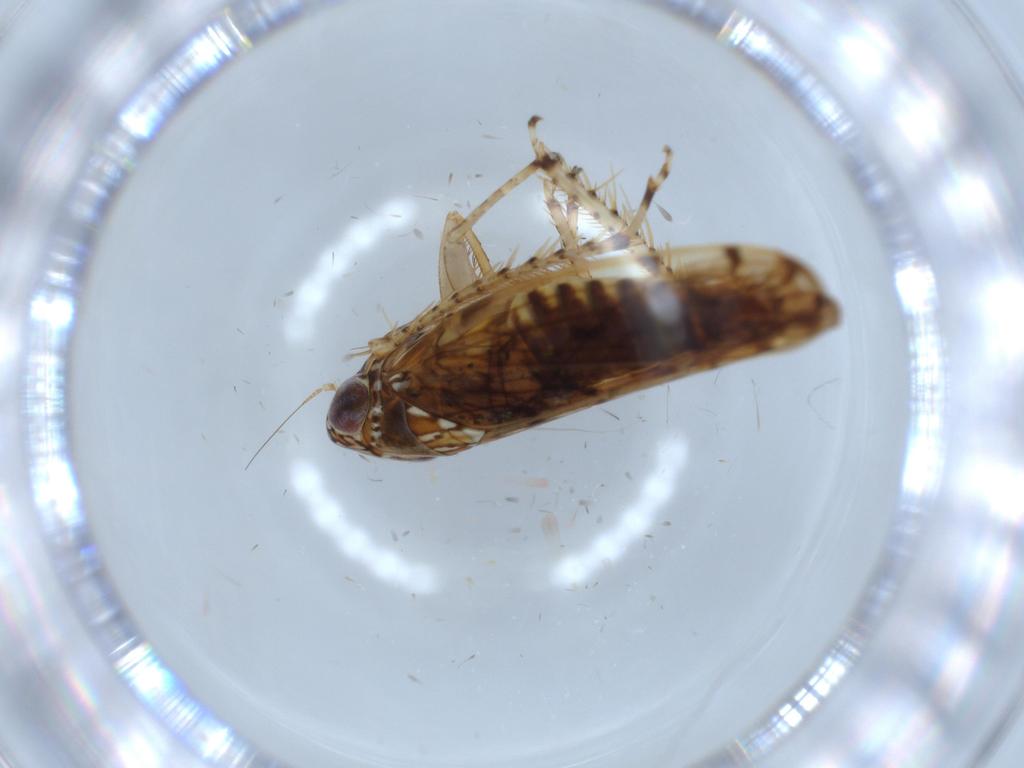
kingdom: Animalia
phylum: Arthropoda
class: Insecta
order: Hemiptera
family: Cicadellidae
